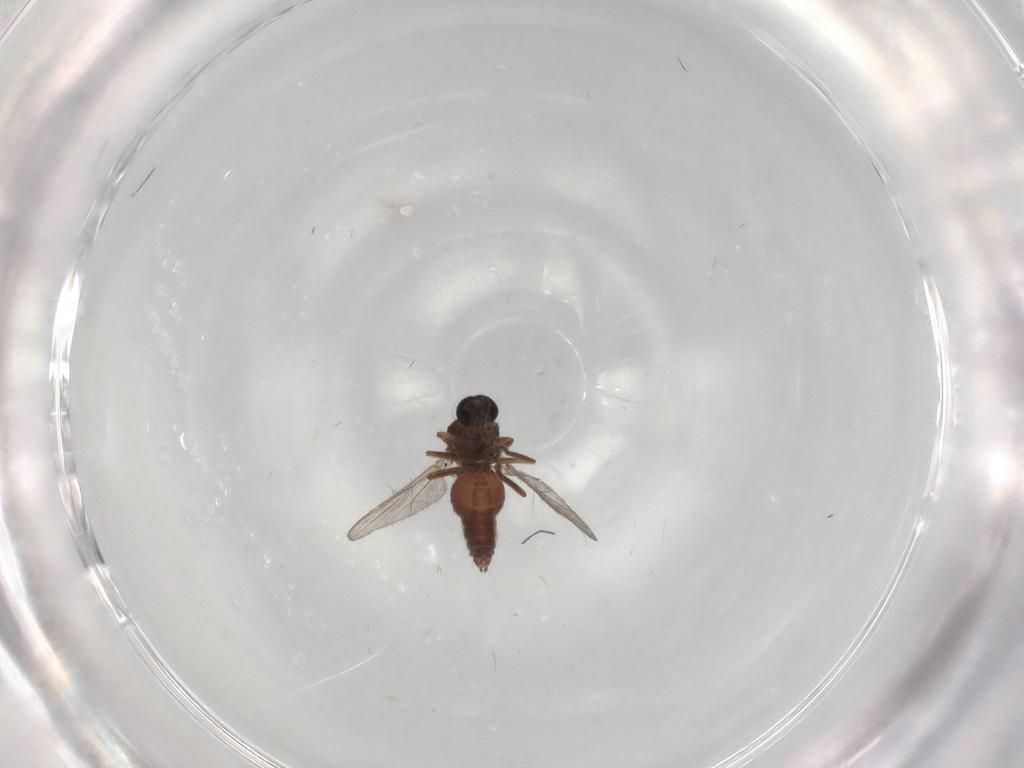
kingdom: Animalia
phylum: Arthropoda
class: Insecta
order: Diptera
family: Ceratopogonidae
